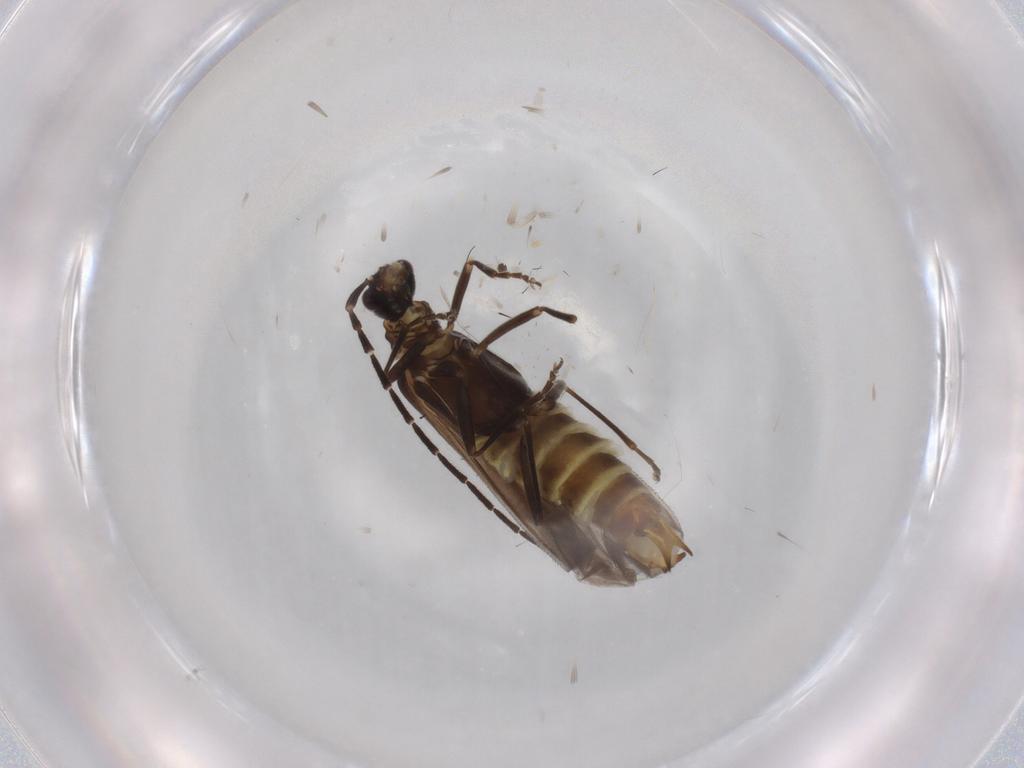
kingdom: Animalia
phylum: Arthropoda
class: Insecta
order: Coleoptera
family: Cantharidae
